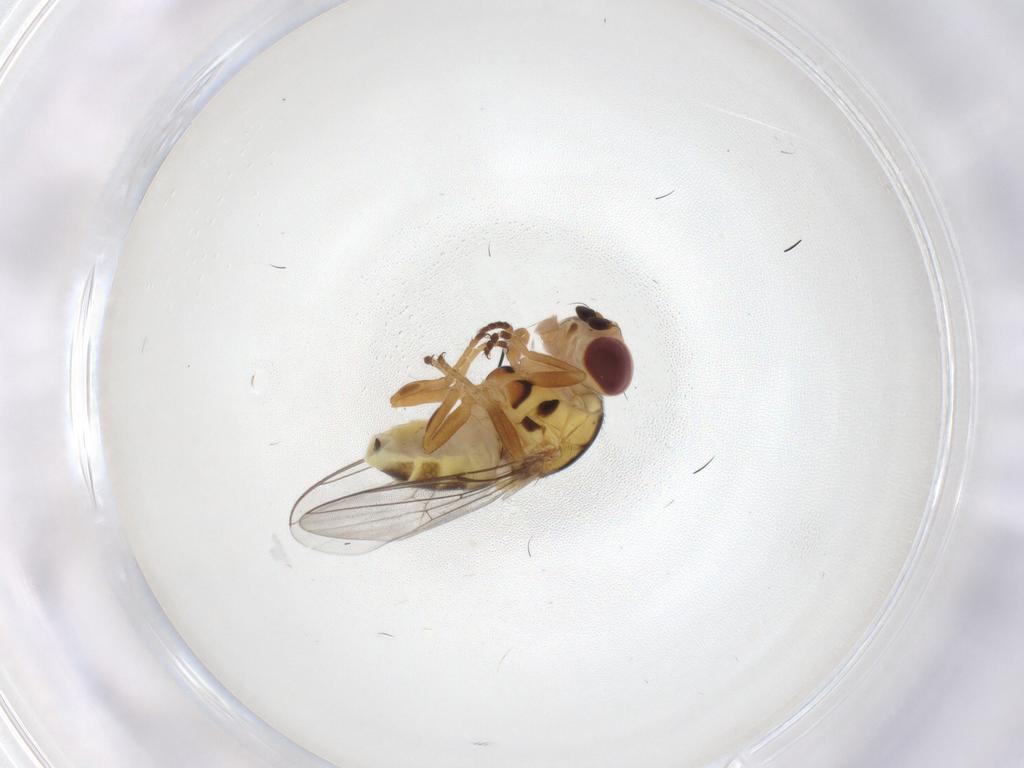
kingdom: Animalia
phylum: Arthropoda
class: Insecta
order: Diptera
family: Chloropidae
